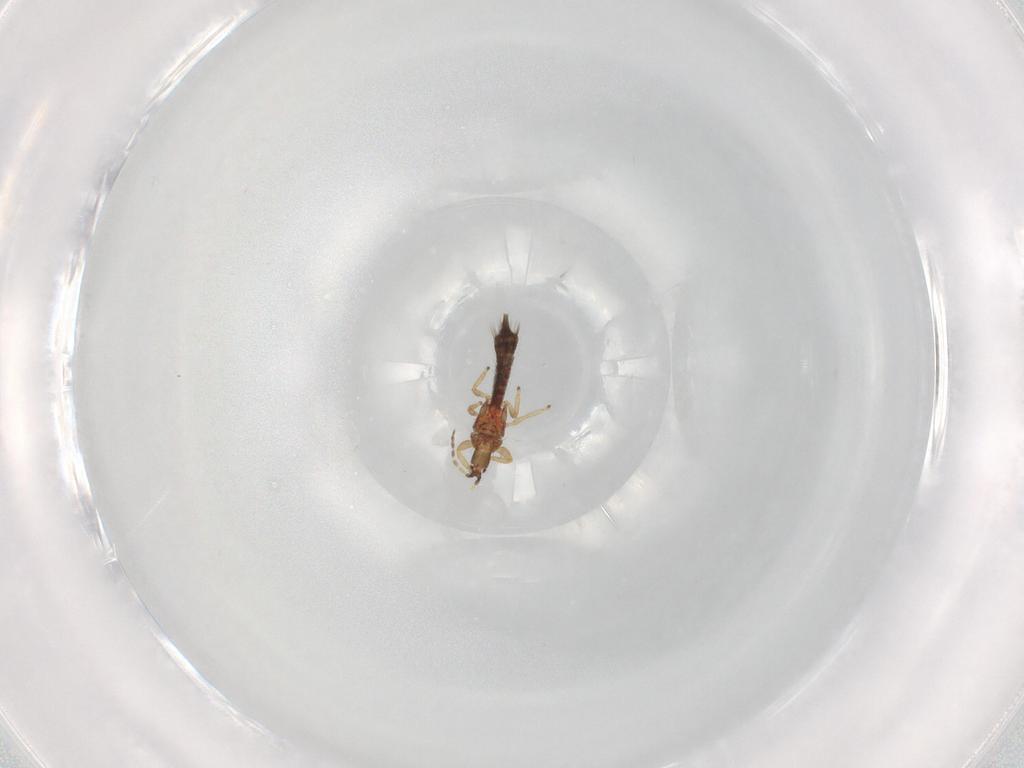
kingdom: Animalia
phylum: Arthropoda
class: Insecta
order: Thysanoptera
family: Phlaeothripidae
